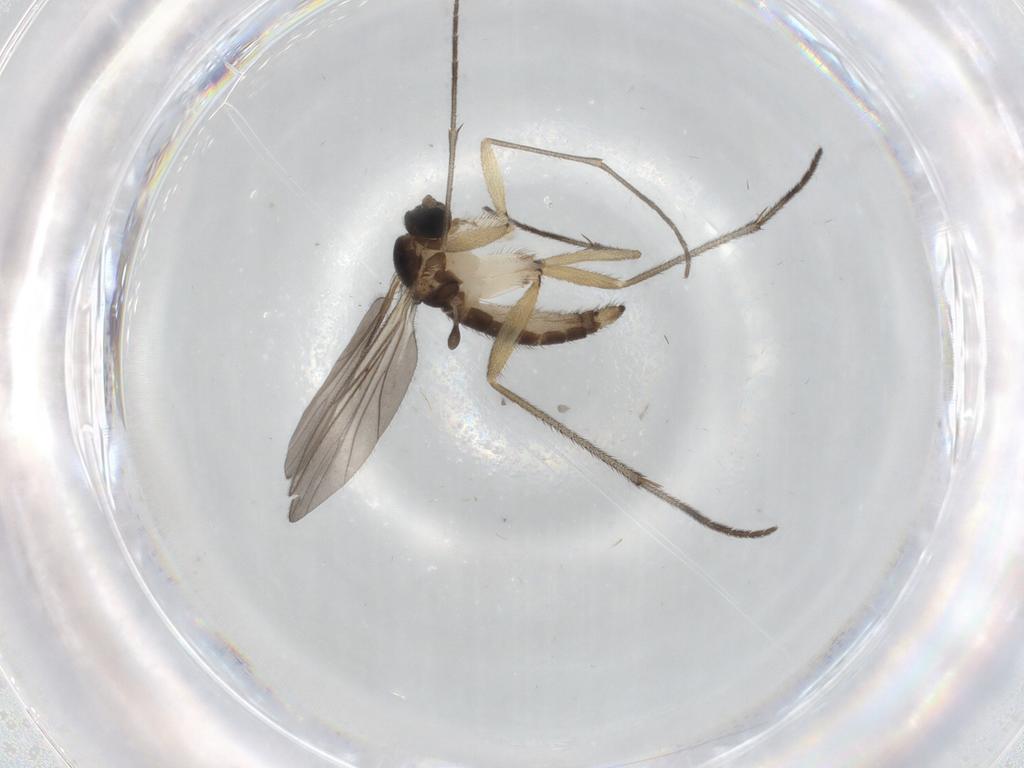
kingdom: Animalia
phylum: Arthropoda
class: Insecta
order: Diptera
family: Sciaridae
